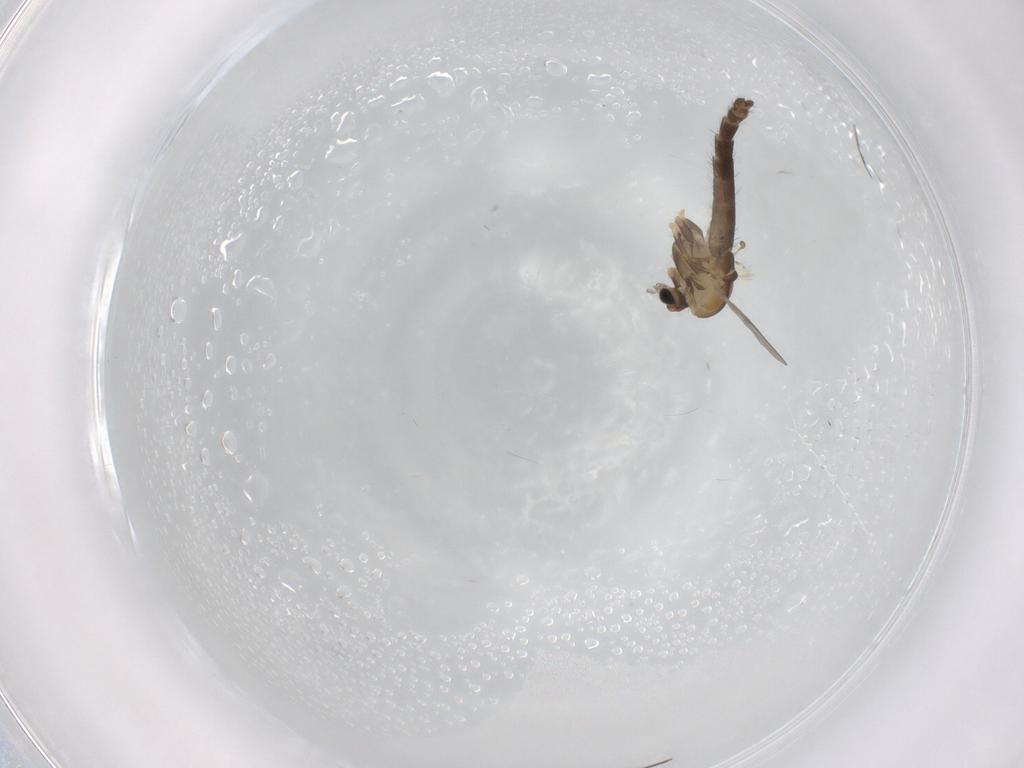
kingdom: Animalia
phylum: Arthropoda
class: Insecta
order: Diptera
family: Chironomidae
